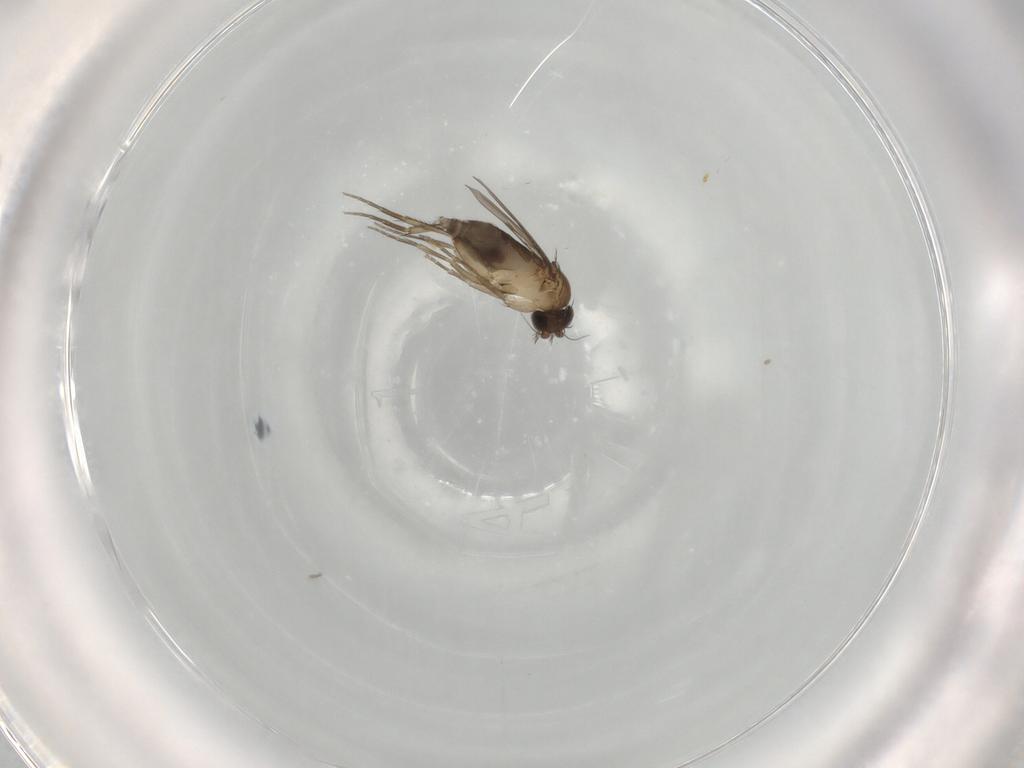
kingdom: Animalia
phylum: Arthropoda
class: Insecta
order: Diptera
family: Phoridae
